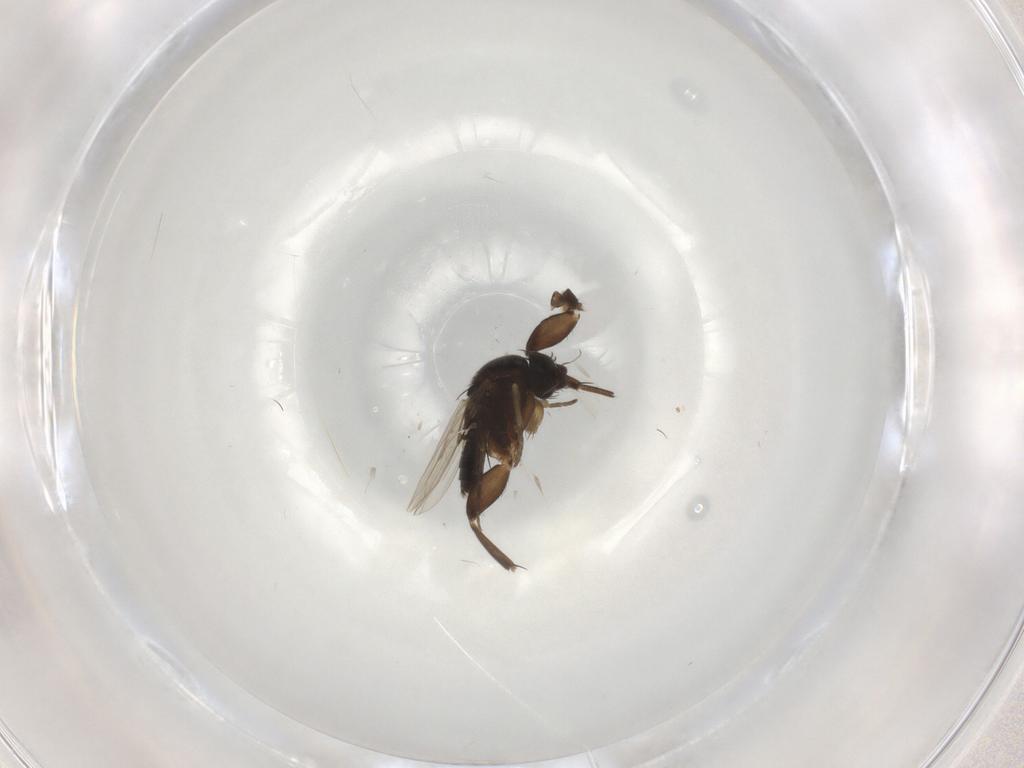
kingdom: Animalia
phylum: Arthropoda
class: Insecta
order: Diptera
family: Phoridae
